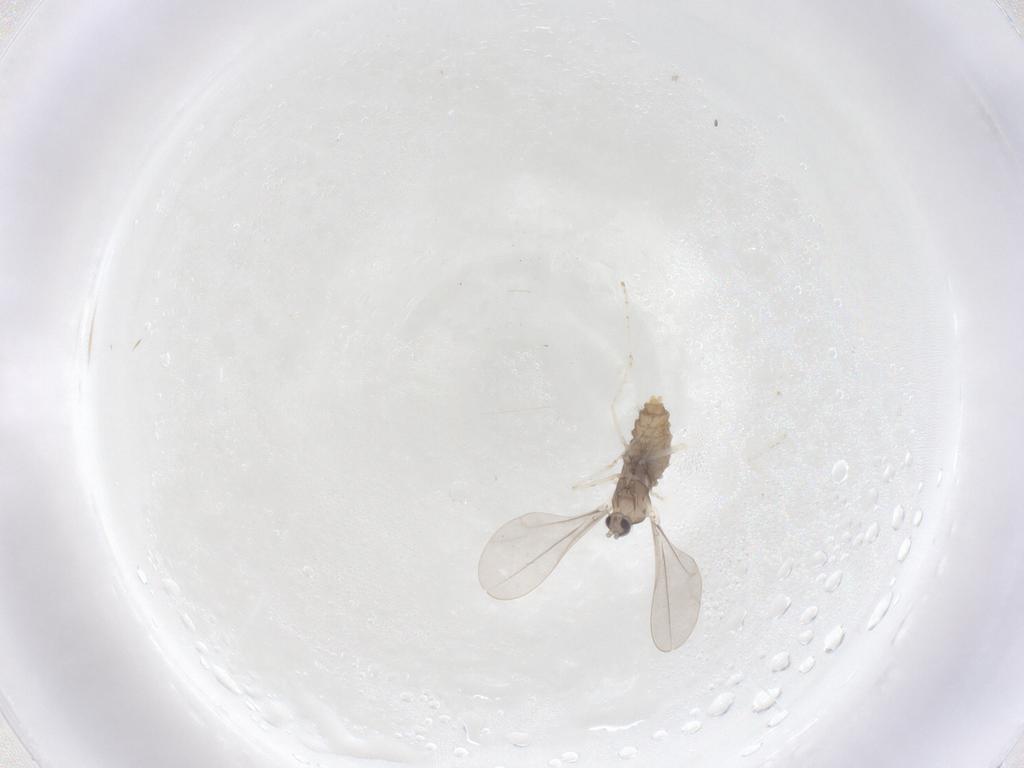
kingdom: Animalia
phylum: Arthropoda
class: Insecta
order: Diptera
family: Cecidomyiidae
